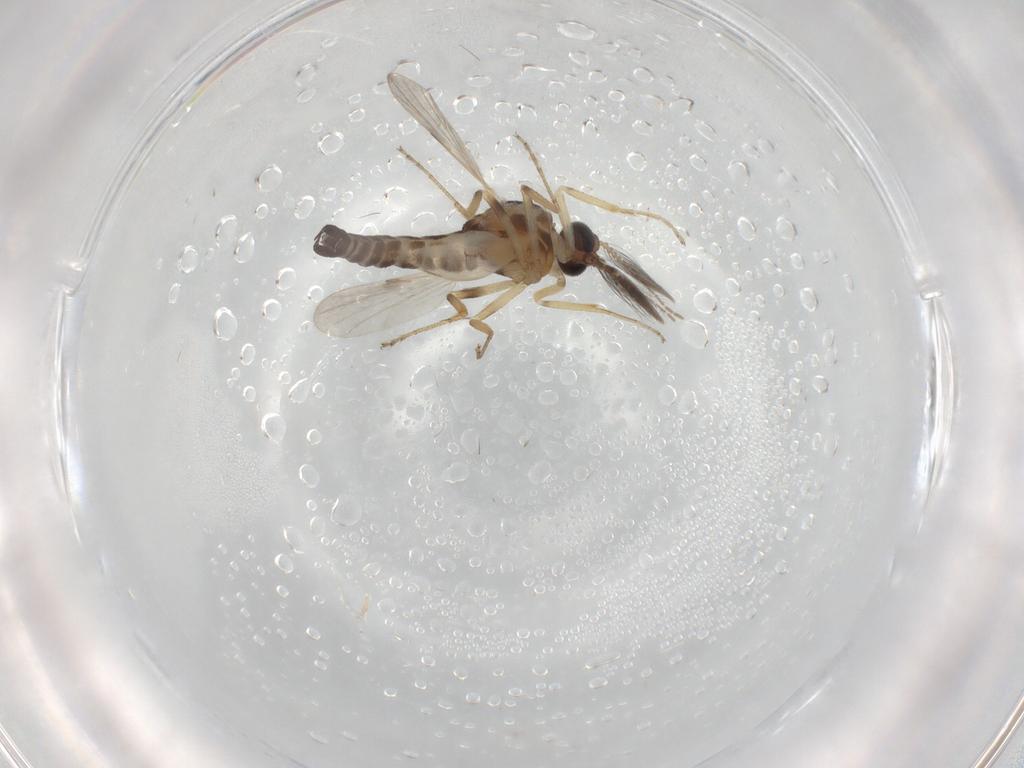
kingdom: Animalia
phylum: Arthropoda
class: Insecta
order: Diptera
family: Ceratopogonidae
